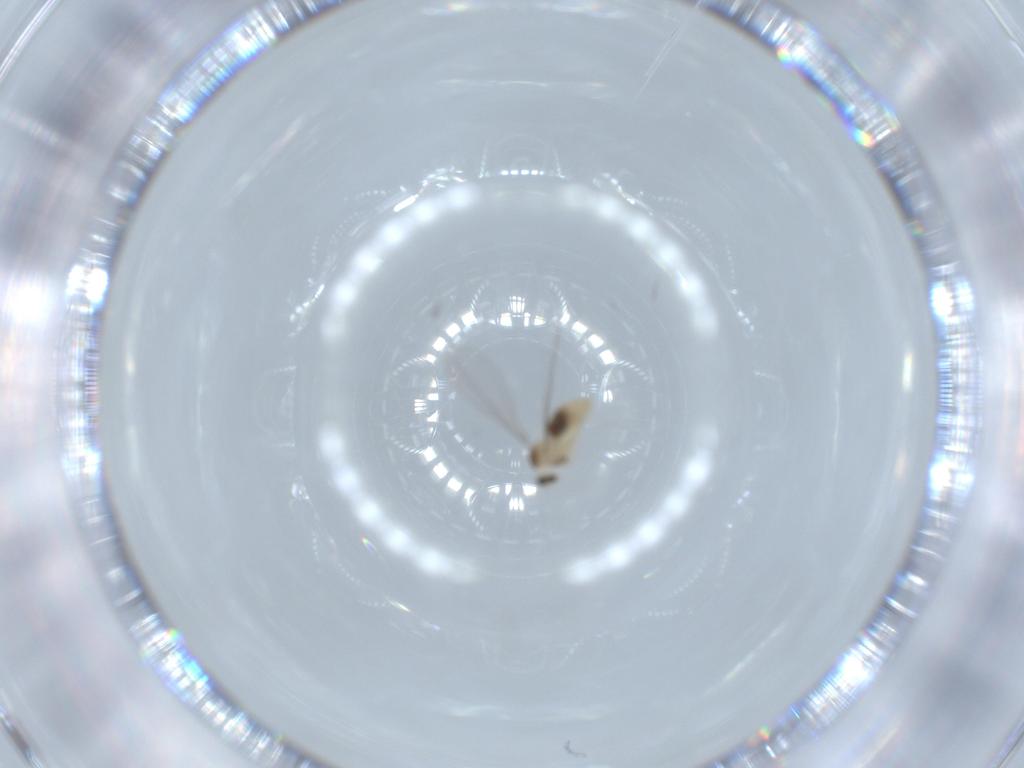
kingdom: Animalia
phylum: Arthropoda
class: Insecta
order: Diptera
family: Cecidomyiidae
